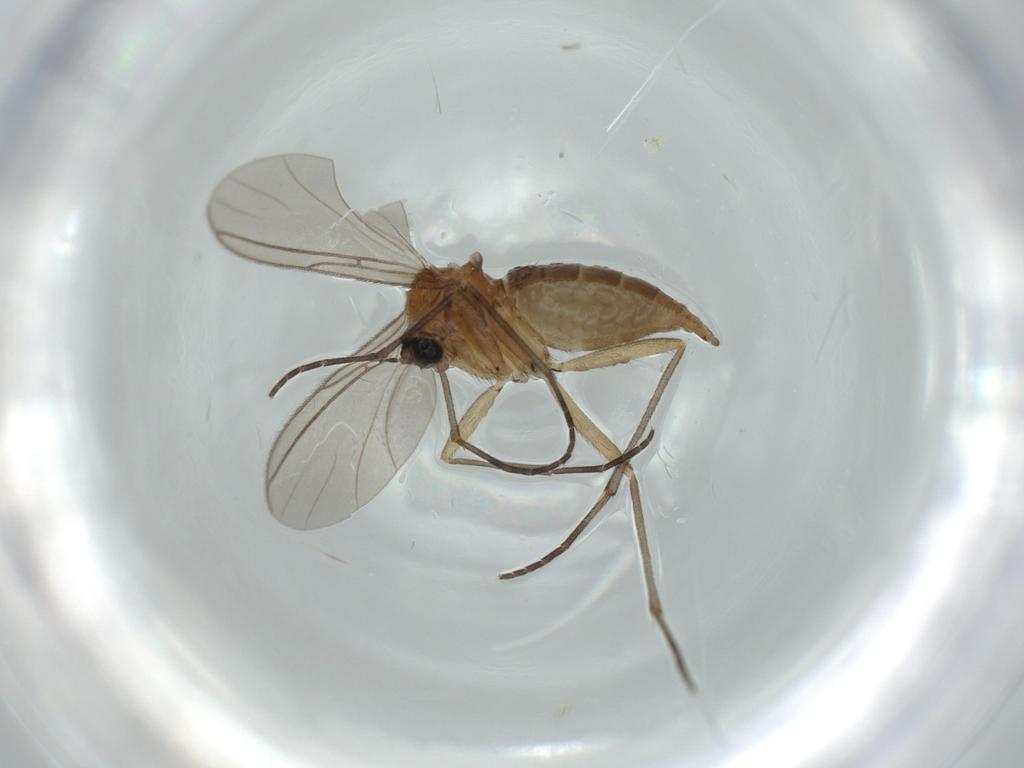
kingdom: Animalia
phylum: Arthropoda
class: Insecta
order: Diptera
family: Sciaridae
